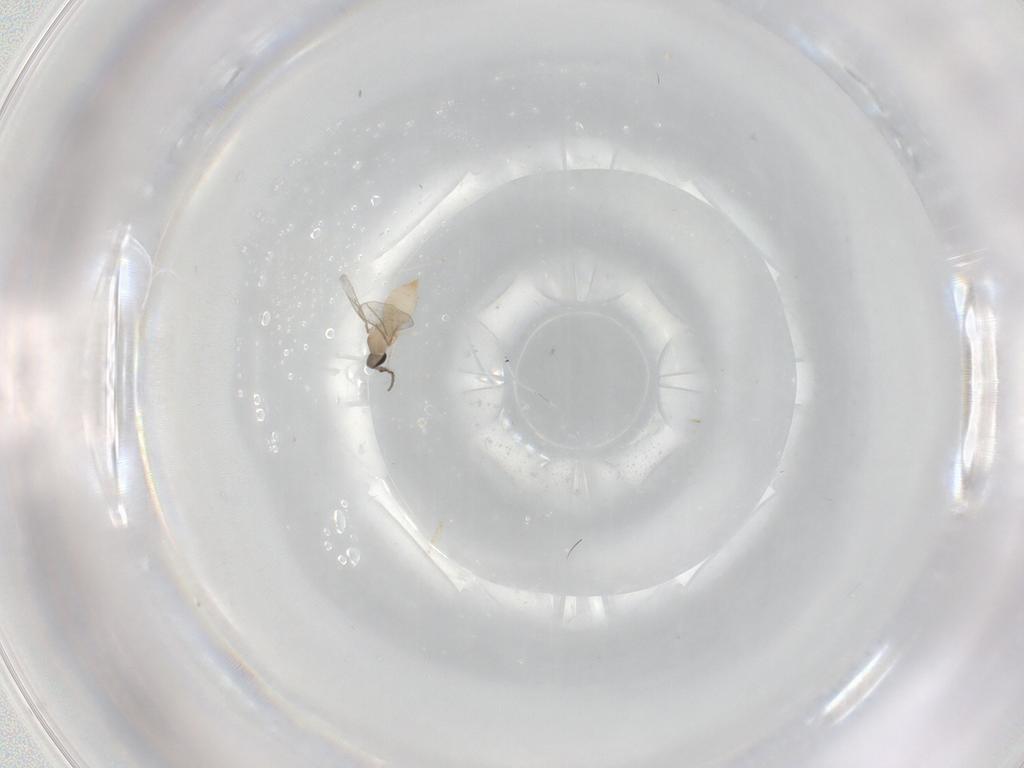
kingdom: Animalia
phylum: Arthropoda
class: Insecta
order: Diptera
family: Cecidomyiidae
